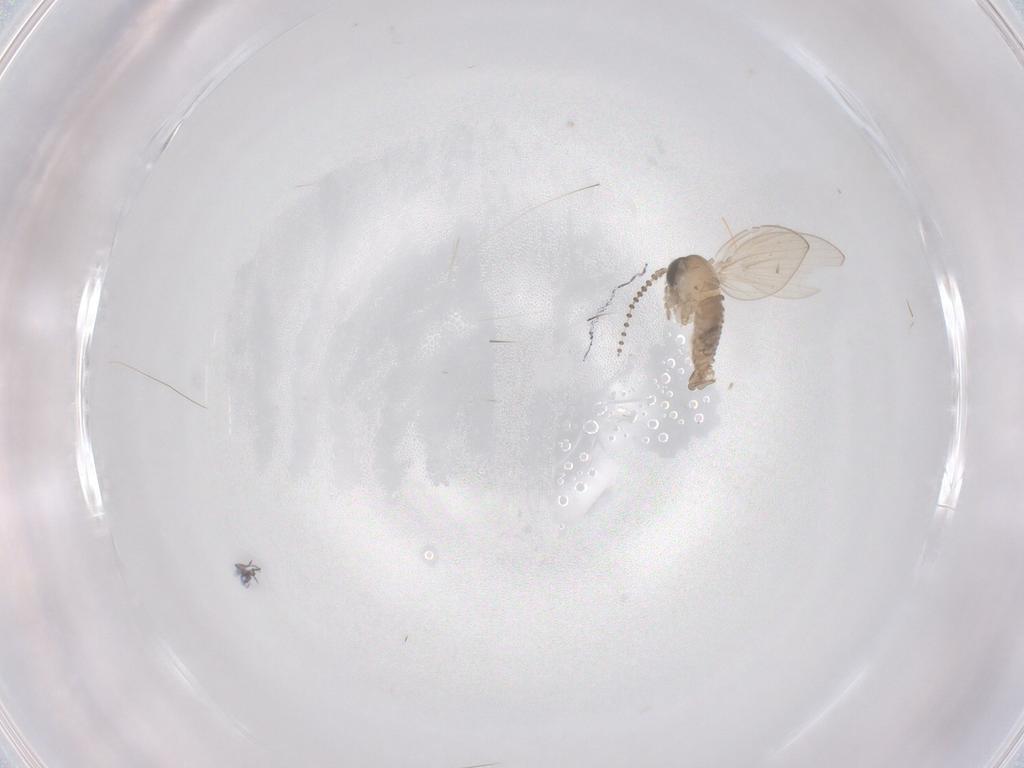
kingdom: Animalia
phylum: Arthropoda
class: Insecta
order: Diptera
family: Psychodidae
